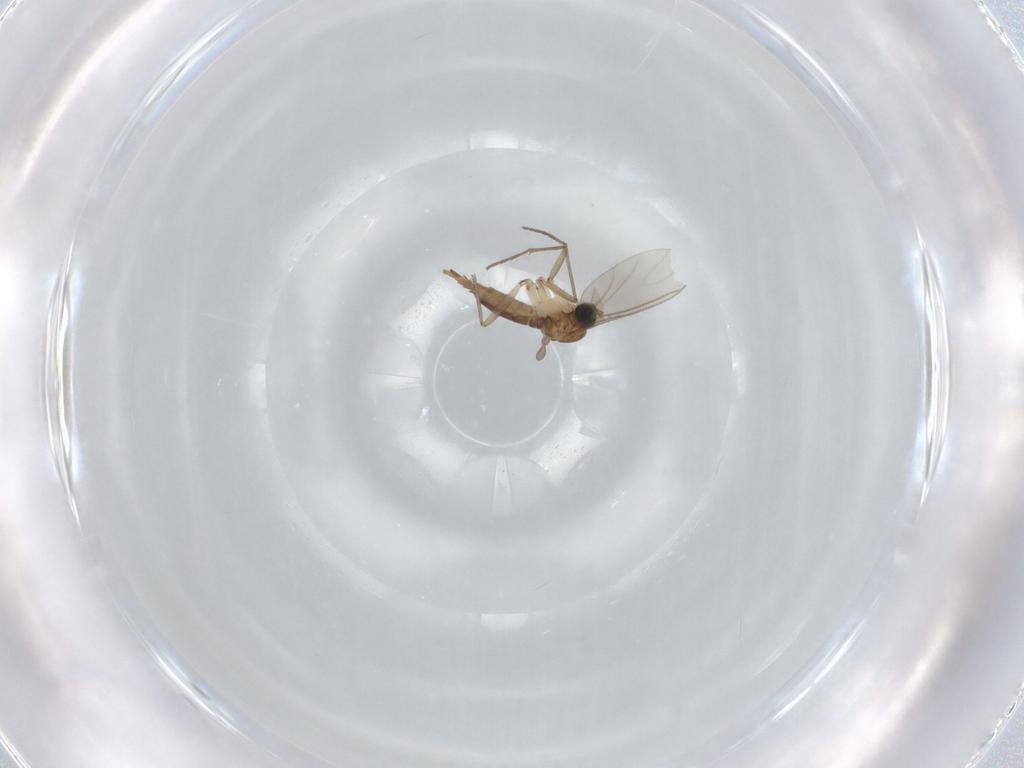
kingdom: Animalia
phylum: Arthropoda
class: Insecta
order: Diptera
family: Sciaridae
